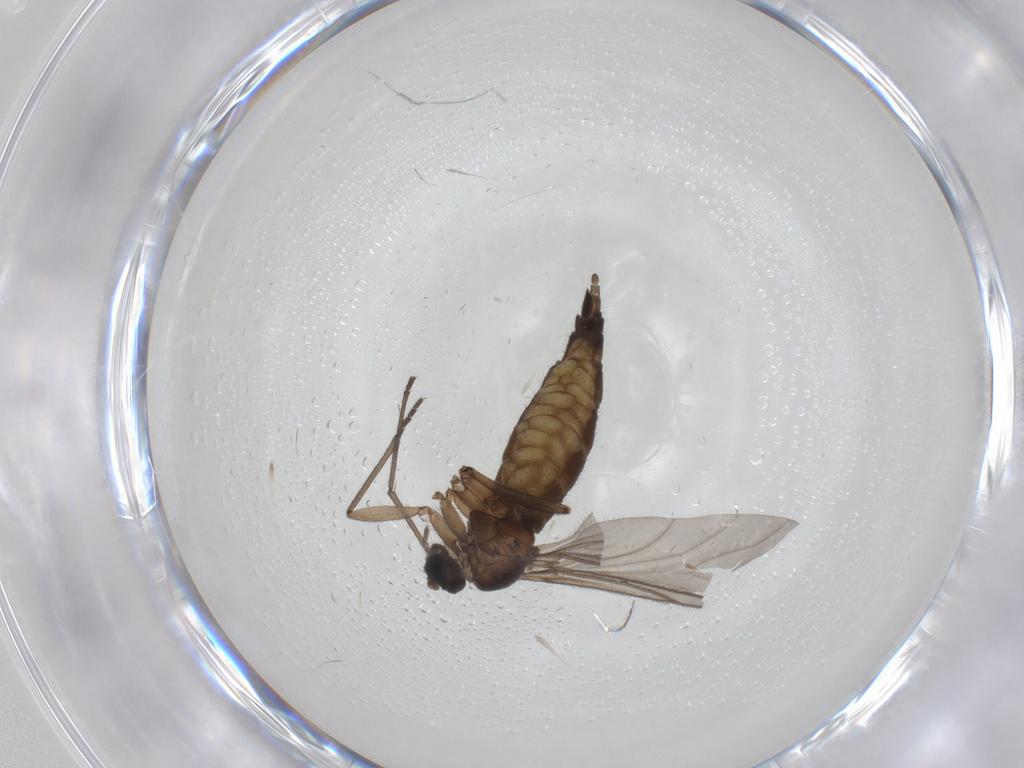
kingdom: Animalia
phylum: Arthropoda
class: Insecta
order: Diptera
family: Sciaridae
